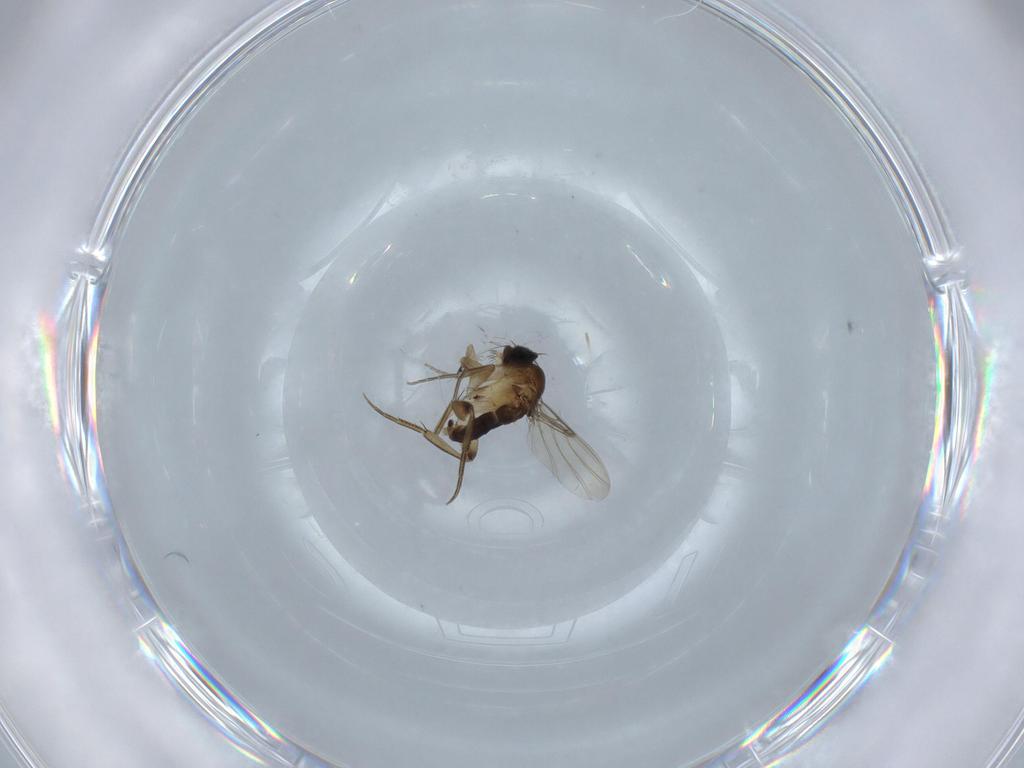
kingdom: Animalia
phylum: Arthropoda
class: Insecta
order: Diptera
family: Phoridae
